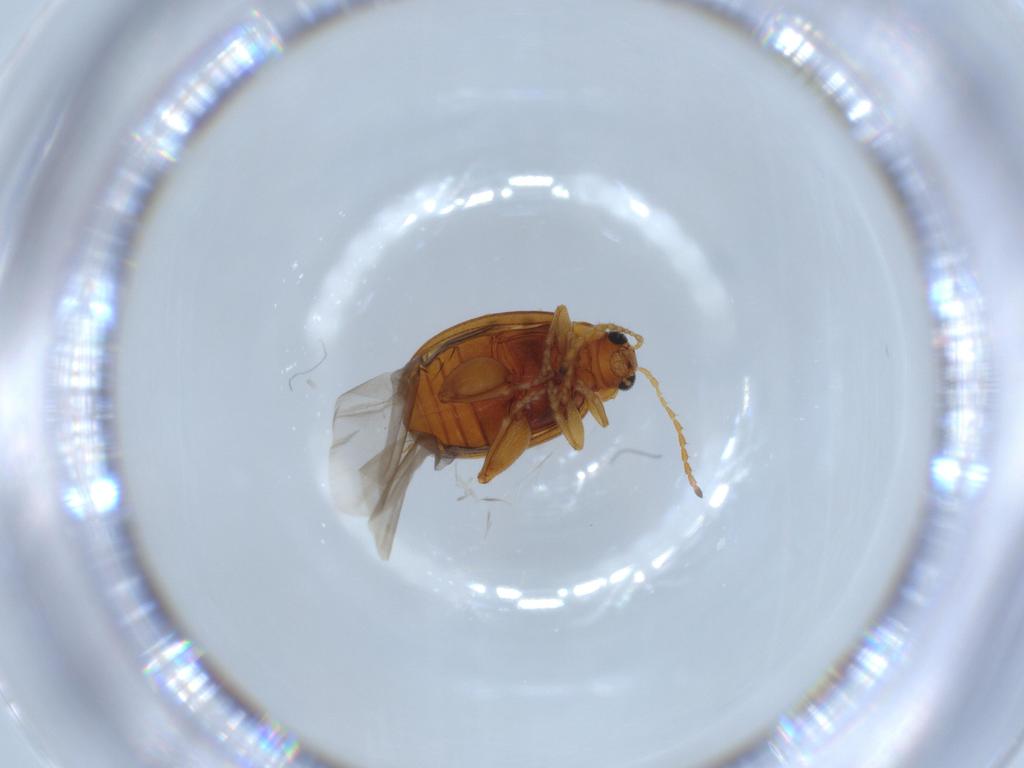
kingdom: Animalia
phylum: Arthropoda
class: Insecta
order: Coleoptera
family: Chrysomelidae
